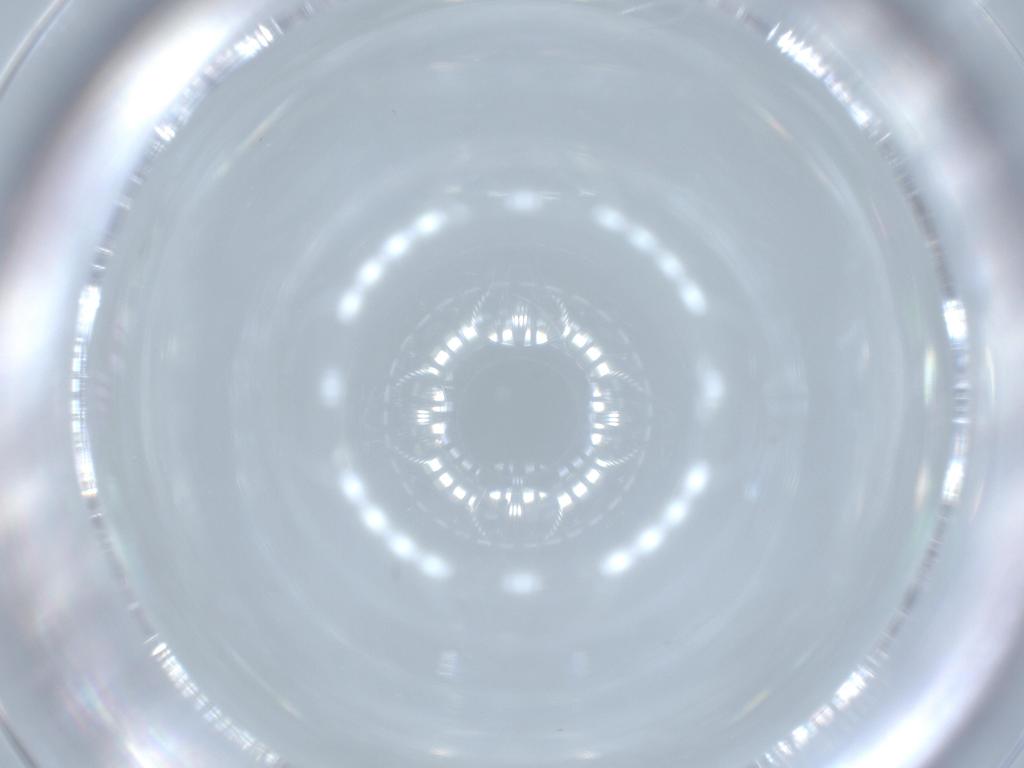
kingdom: Animalia
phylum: Arthropoda
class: Insecta
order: Hymenoptera
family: Trichogrammatidae
